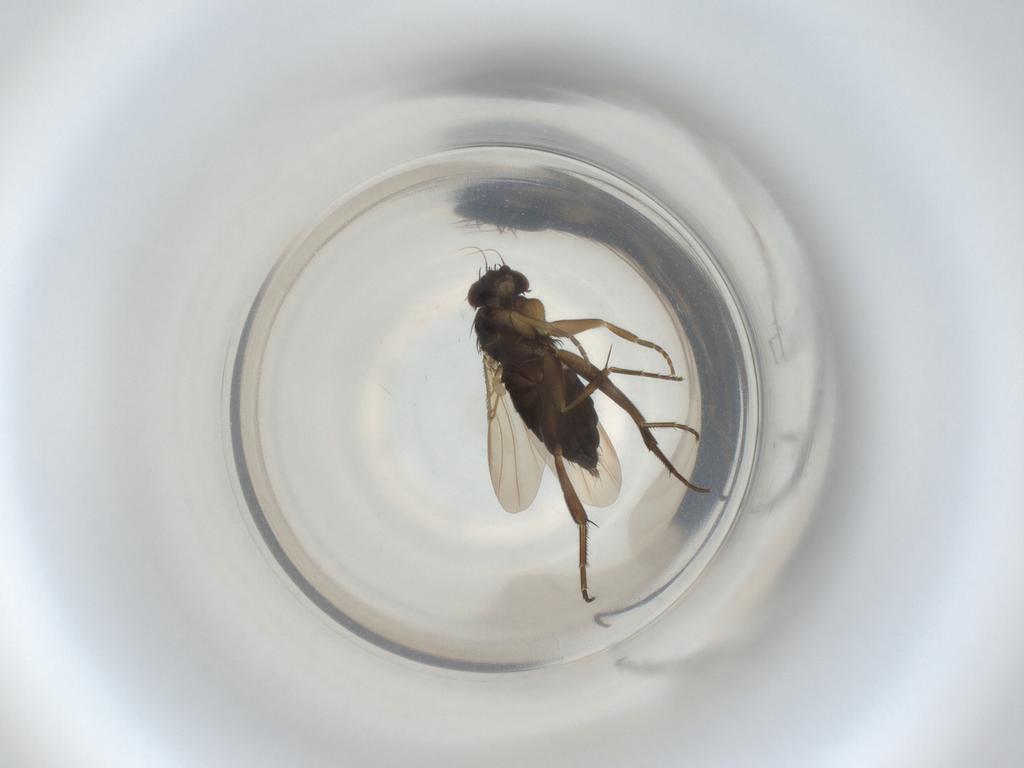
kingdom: Animalia
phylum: Arthropoda
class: Insecta
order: Diptera
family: Phoridae
